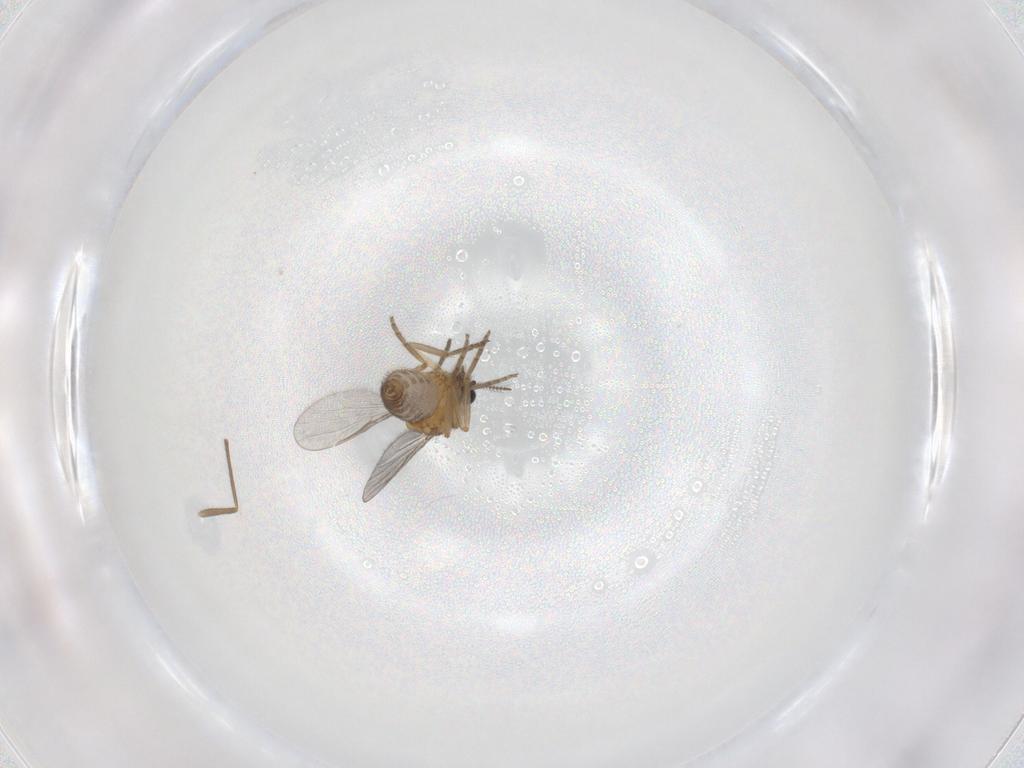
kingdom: Animalia
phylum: Arthropoda
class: Insecta
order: Diptera
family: Ceratopogonidae
